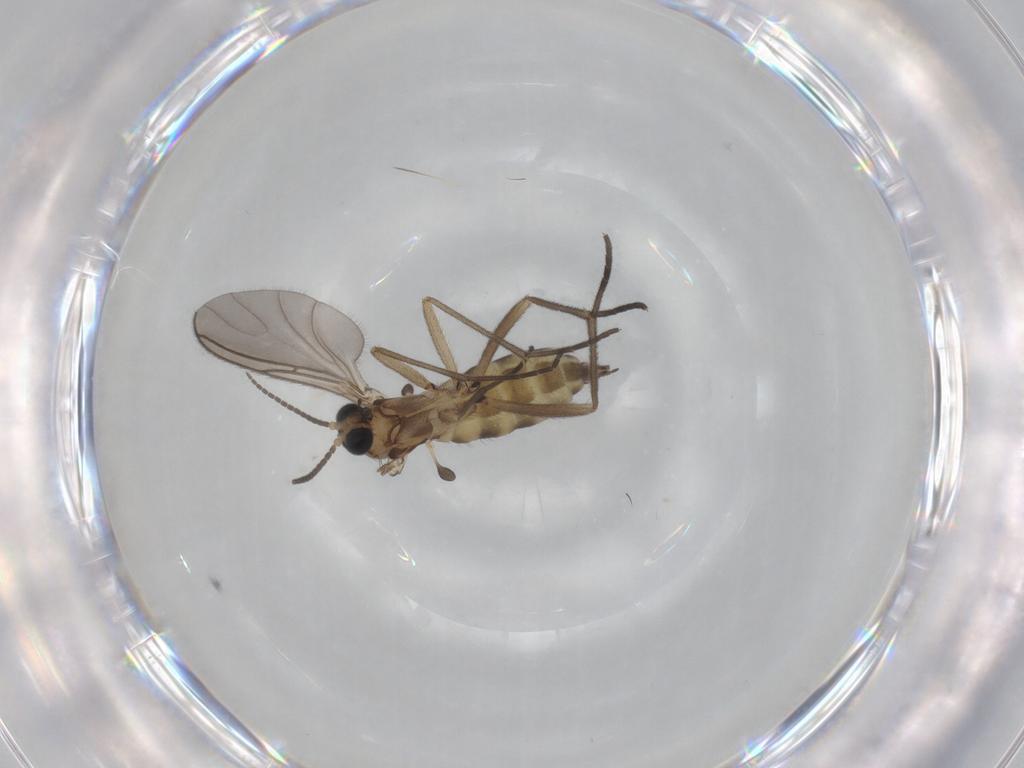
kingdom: Animalia
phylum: Arthropoda
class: Insecta
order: Diptera
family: Sciaridae
